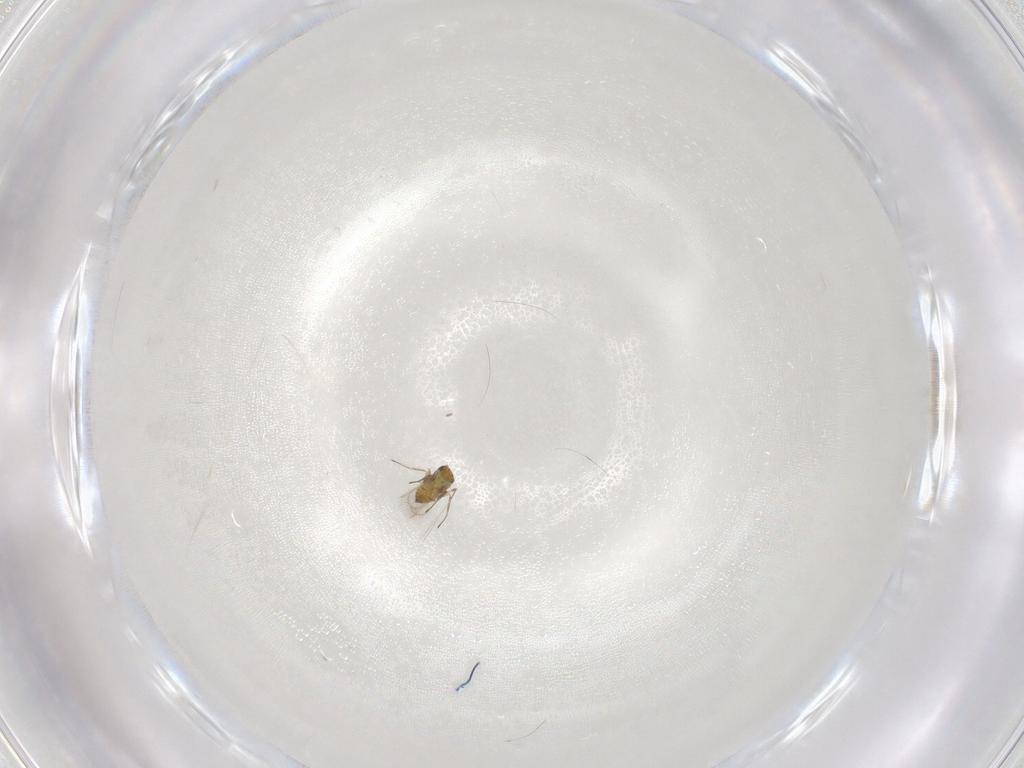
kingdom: Animalia
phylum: Arthropoda
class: Insecta
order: Hymenoptera
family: Trichogrammatidae
